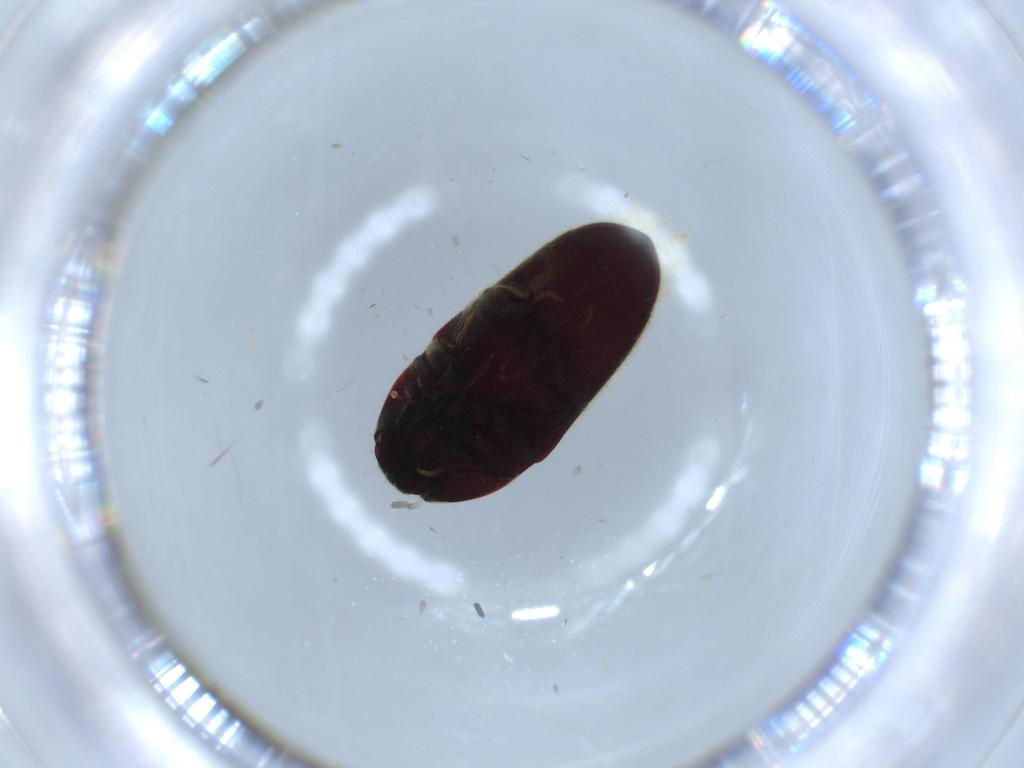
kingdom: Animalia
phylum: Arthropoda
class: Insecta
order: Coleoptera
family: Throscidae
